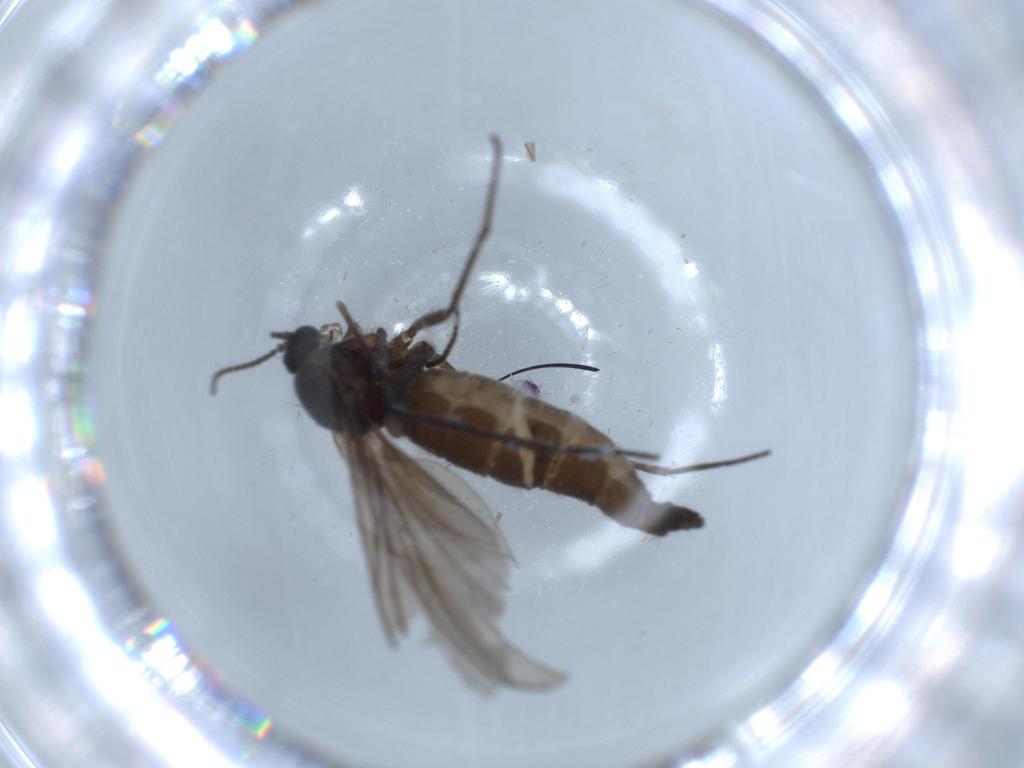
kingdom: Animalia
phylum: Arthropoda
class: Insecta
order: Diptera
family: Sciaridae
